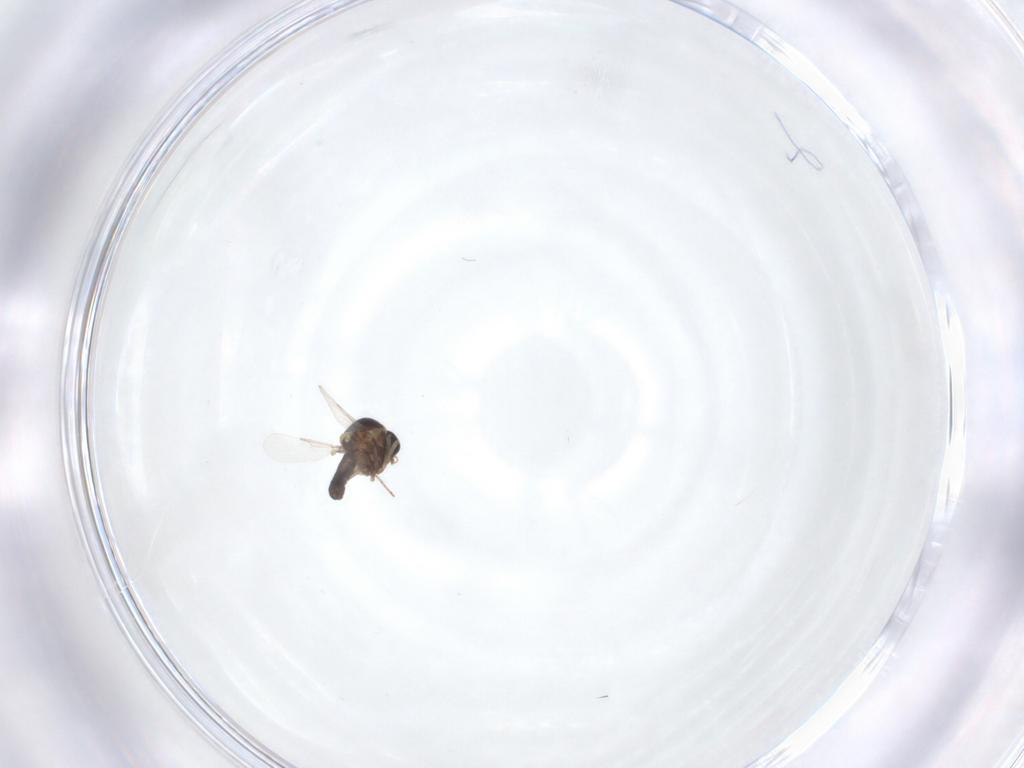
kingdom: Animalia
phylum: Arthropoda
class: Insecta
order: Diptera
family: Ceratopogonidae
